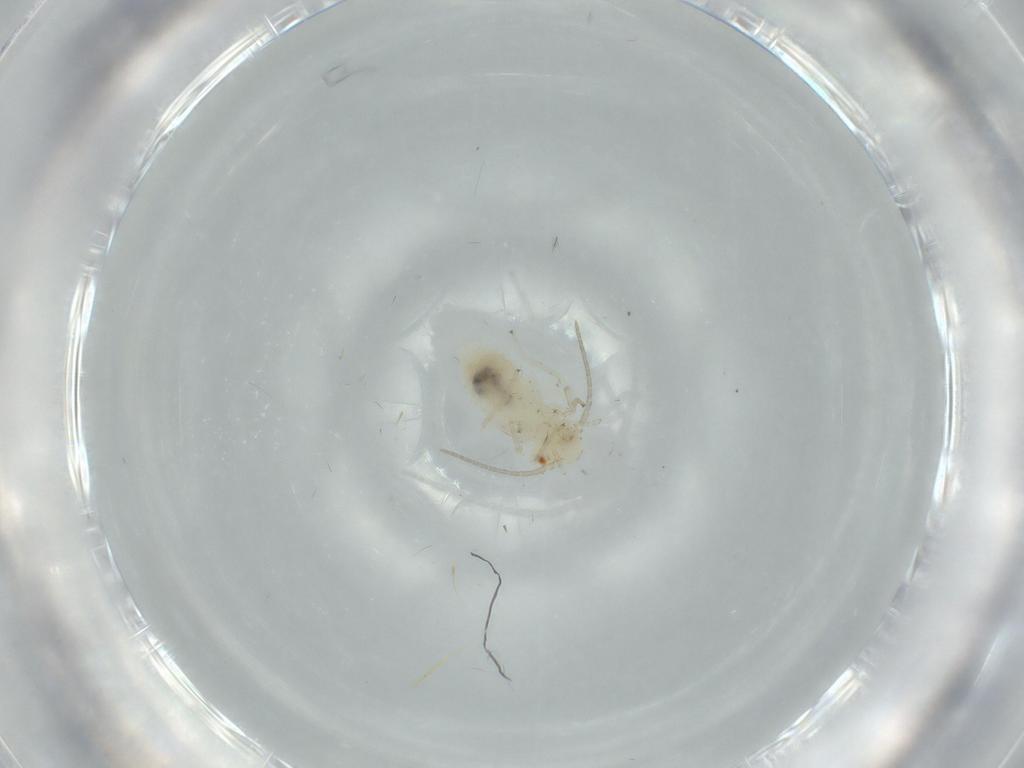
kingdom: Animalia
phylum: Arthropoda
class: Insecta
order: Psocodea
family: Caeciliusidae
